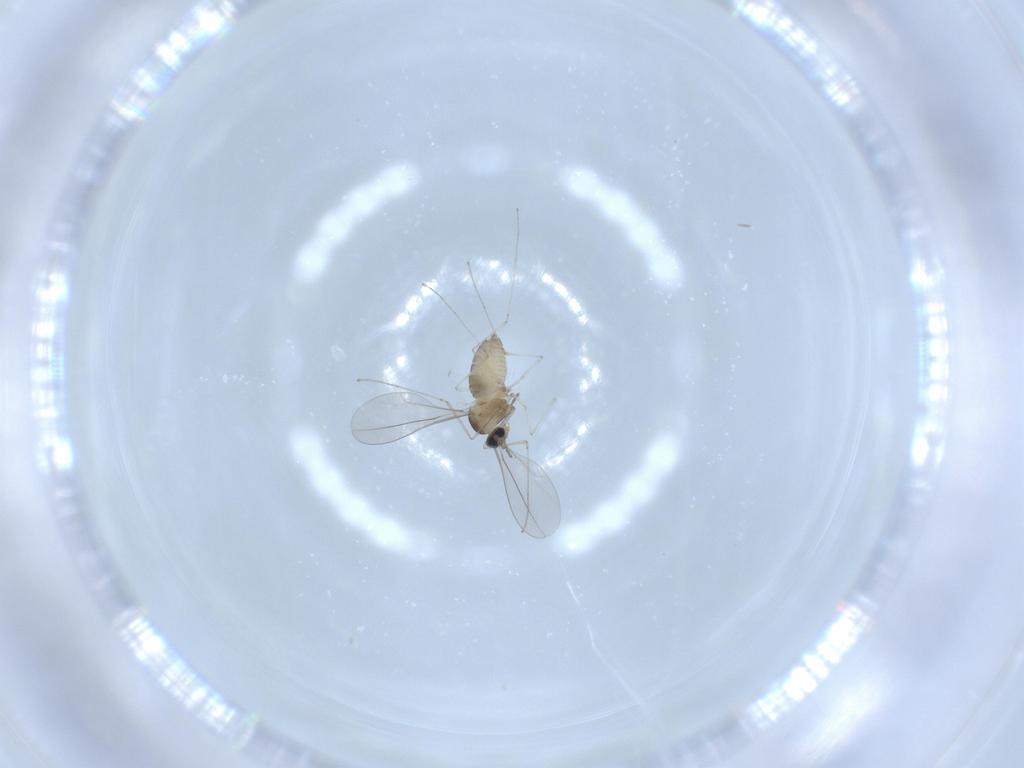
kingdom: Animalia
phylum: Arthropoda
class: Insecta
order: Diptera
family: Cecidomyiidae
